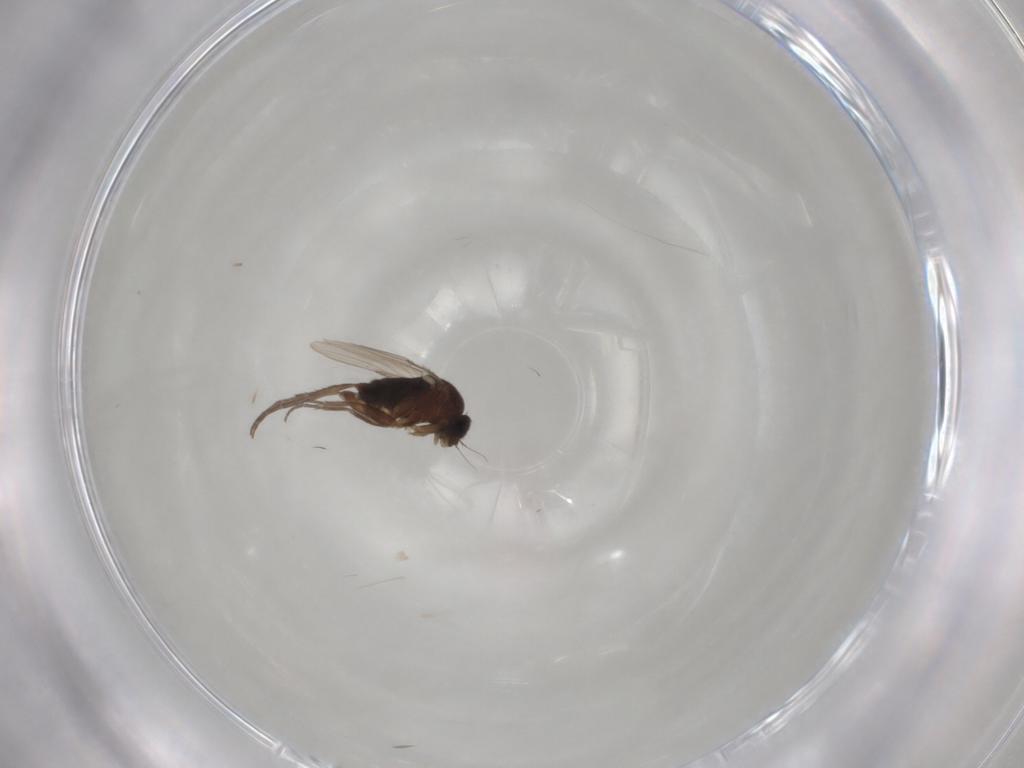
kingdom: Animalia
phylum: Arthropoda
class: Insecta
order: Diptera
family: Phoridae
